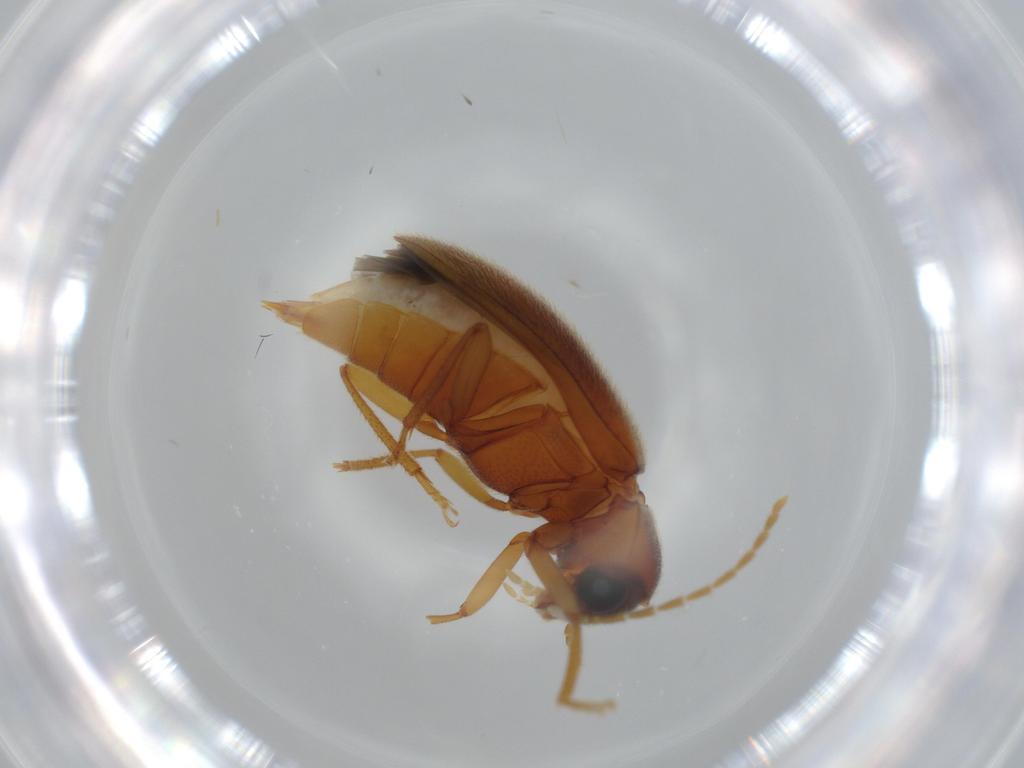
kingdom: Animalia
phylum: Arthropoda
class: Insecta
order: Coleoptera
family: Ptilodactylidae
